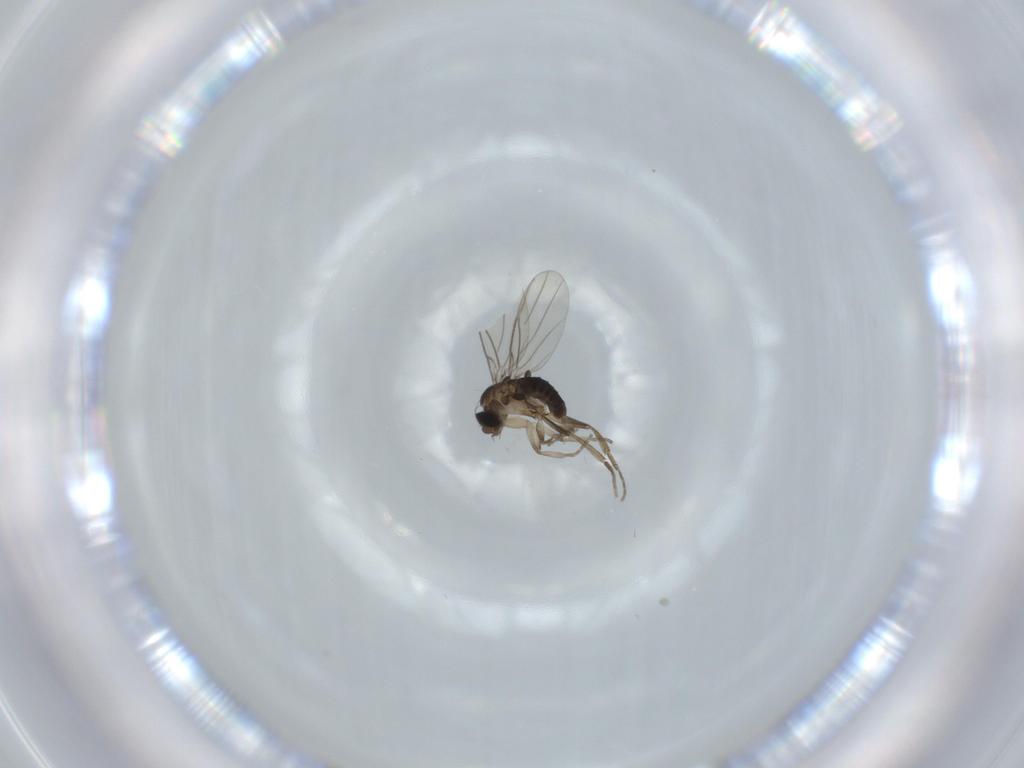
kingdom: Animalia
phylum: Arthropoda
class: Insecta
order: Diptera
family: Phoridae
